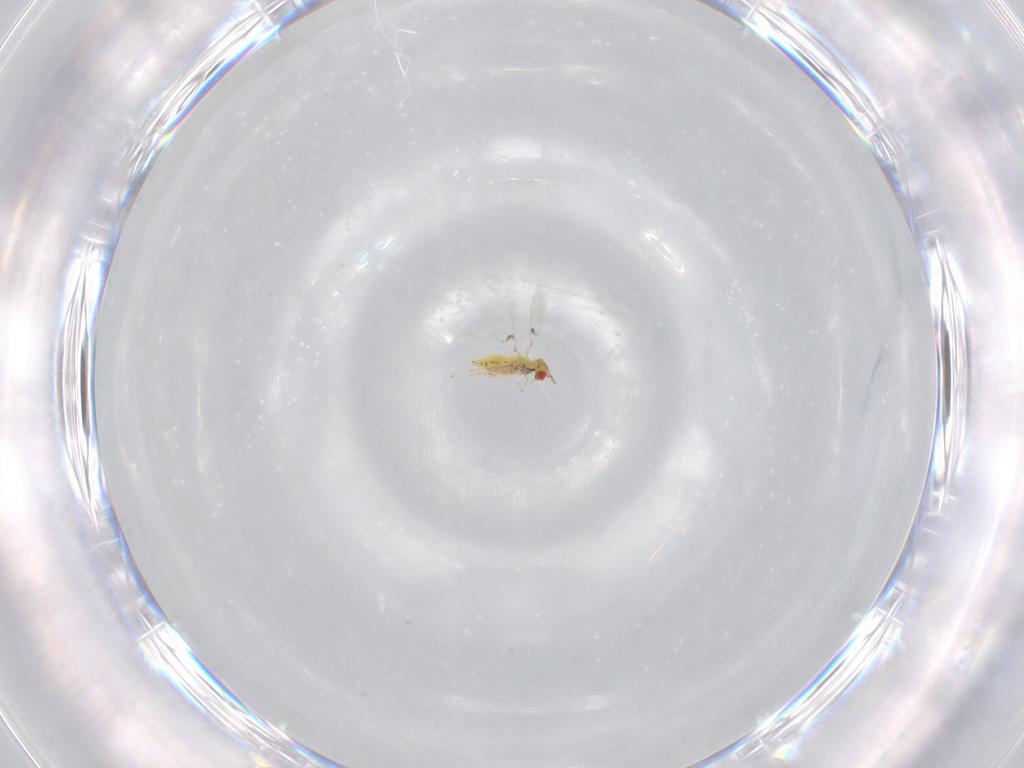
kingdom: Animalia
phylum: Arthropoda
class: Insecta
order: Hymenoptera
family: Trichogrammatidae
